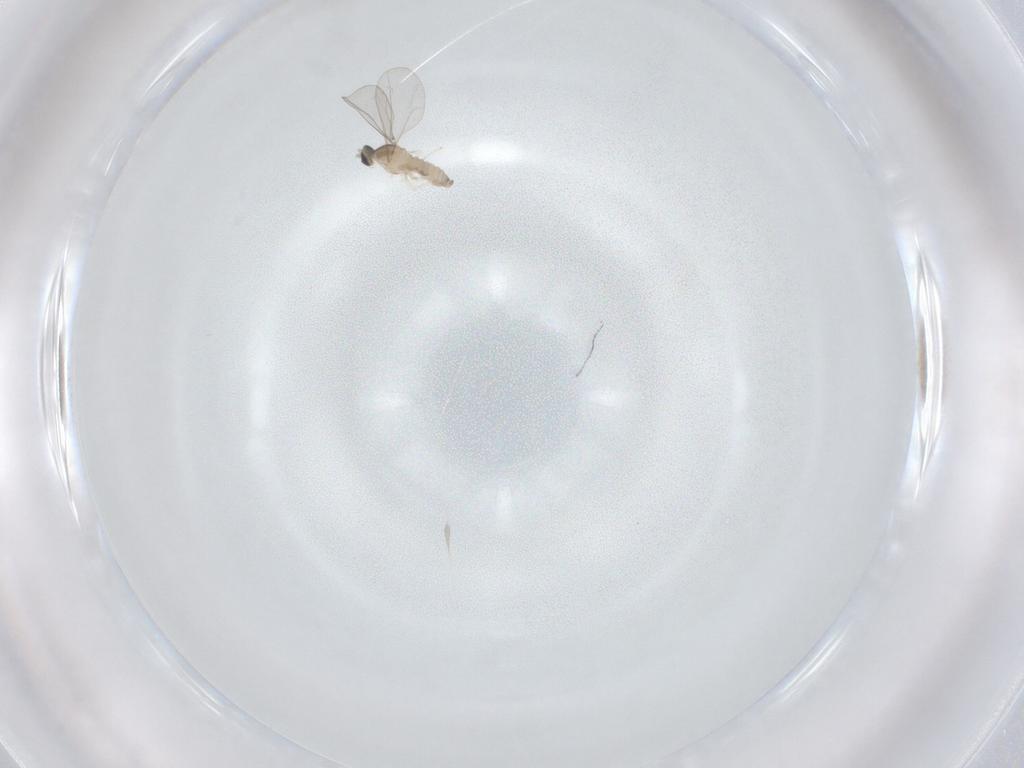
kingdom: Animalia
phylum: Arthropoda
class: Insecta
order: Diptera
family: Cecidomyiidae
